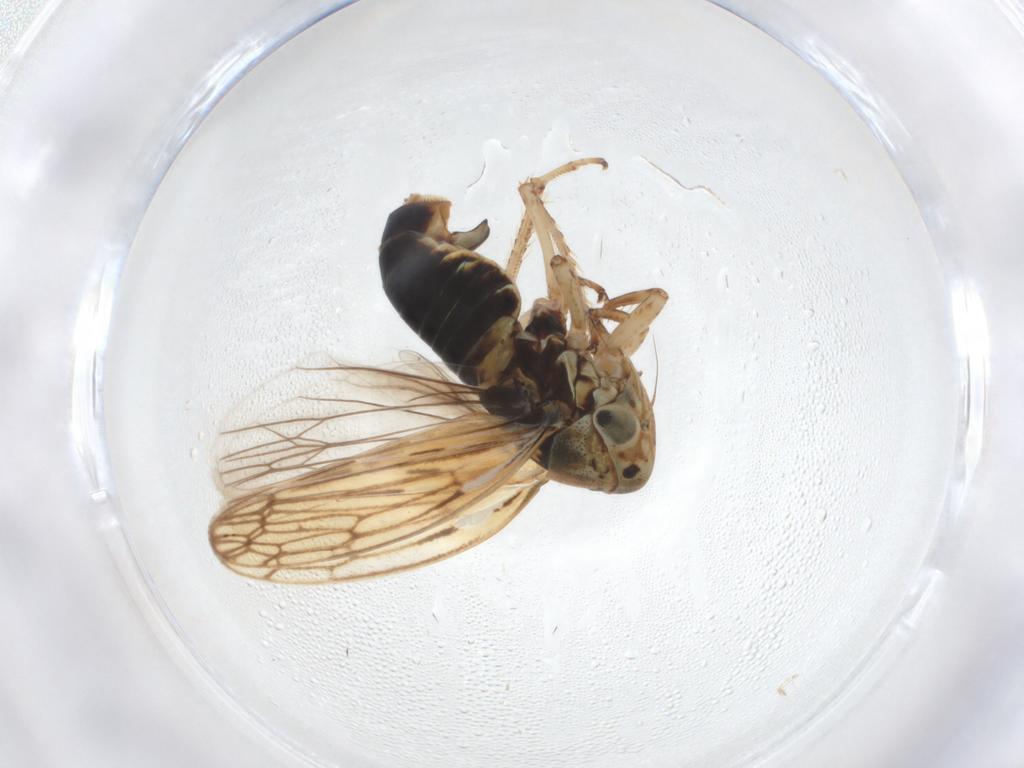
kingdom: Animalia
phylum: Arthropoda
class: Insecta
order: Hemiptera
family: Cicadellidae
